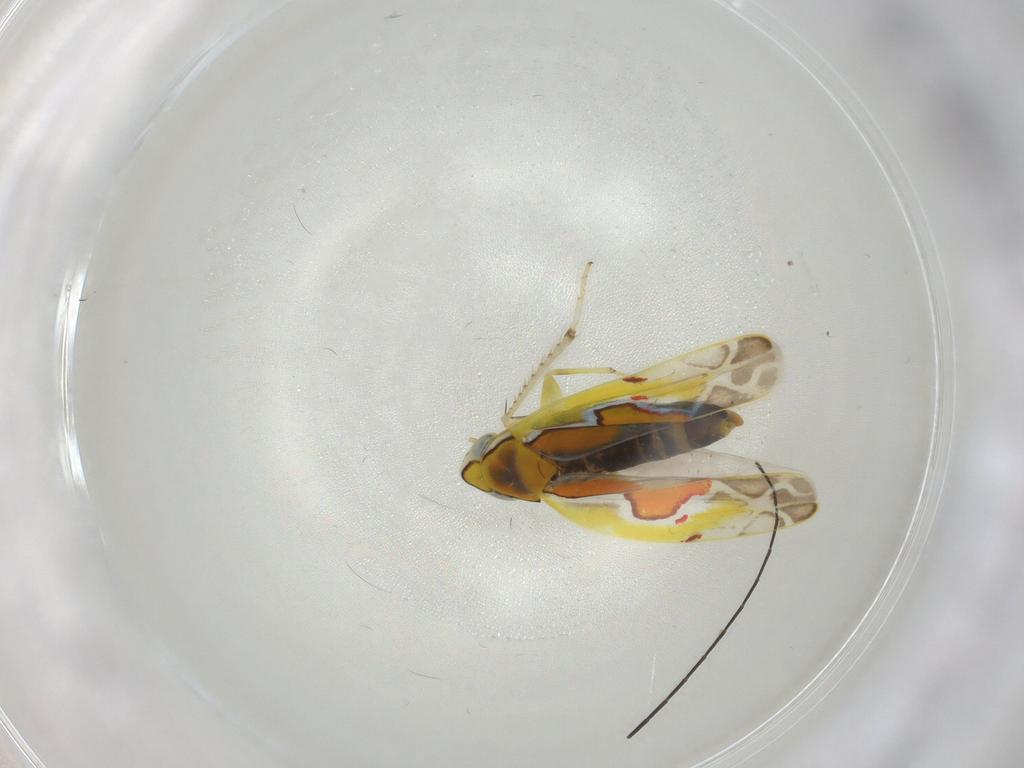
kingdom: Animalia
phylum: Arthropoda
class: Insecta
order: Hemiptera
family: Cicadellidae
